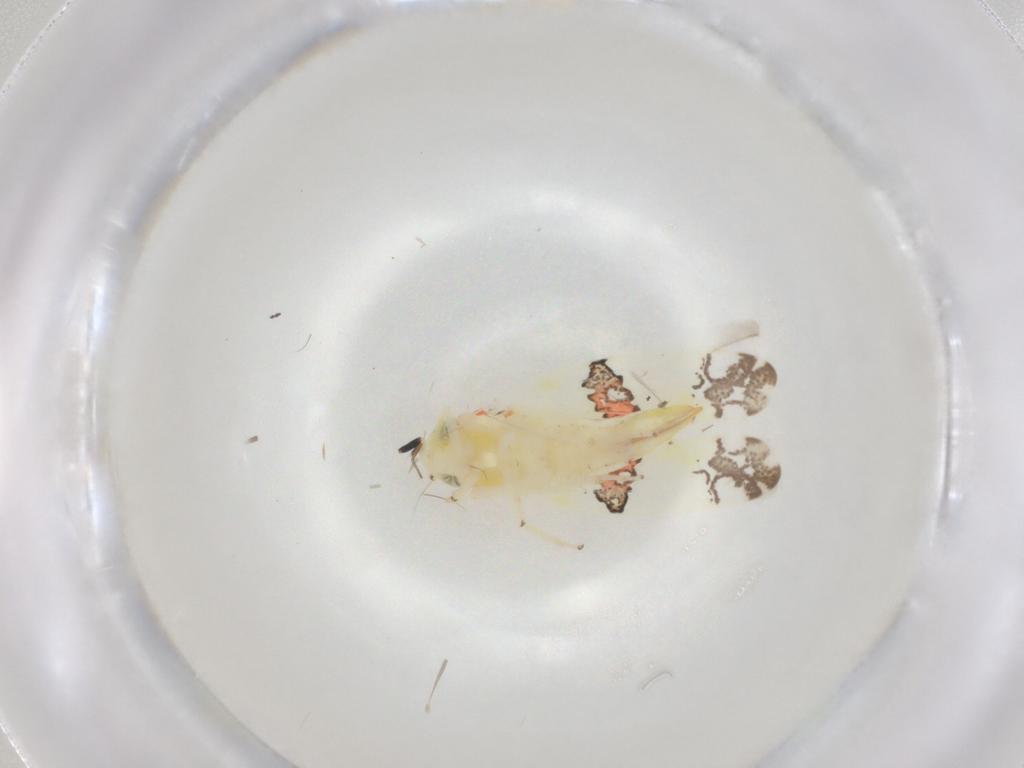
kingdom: Animalia
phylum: Arthropoda
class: Insecta
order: Hemiptera
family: Cicadellidae
